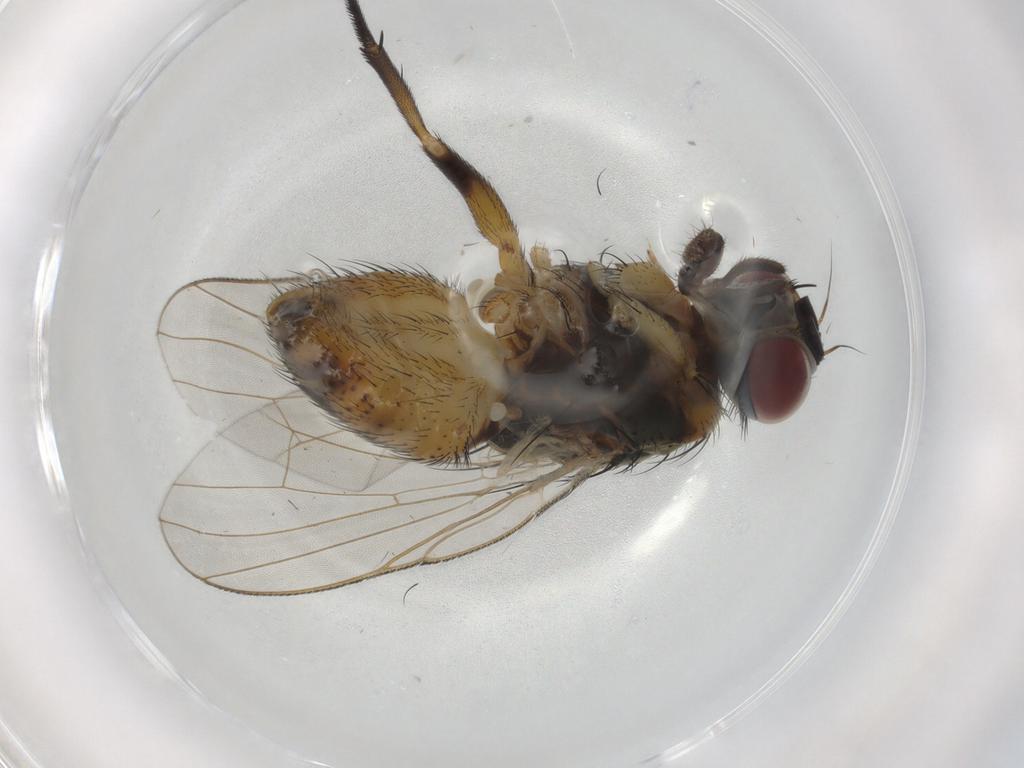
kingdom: Animalia
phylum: Arthropoda
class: Insecta
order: Diptera
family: Muscidae
